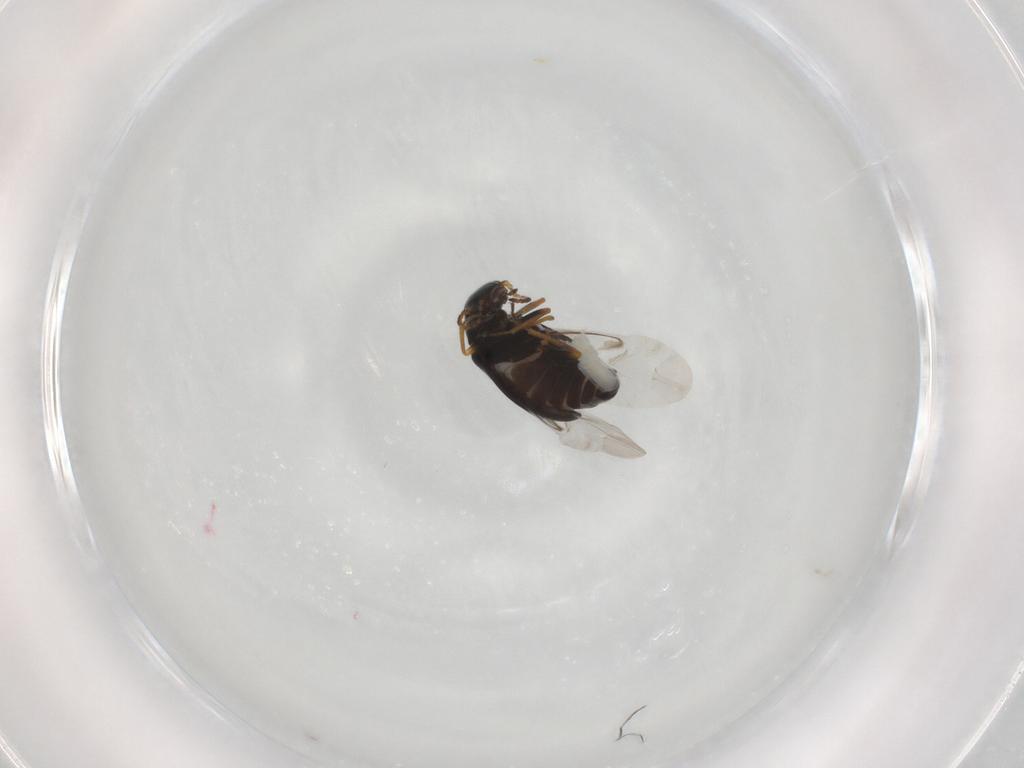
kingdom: Animalia
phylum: Arthropoda
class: Insecta
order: Coleoptera
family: Melyridae
